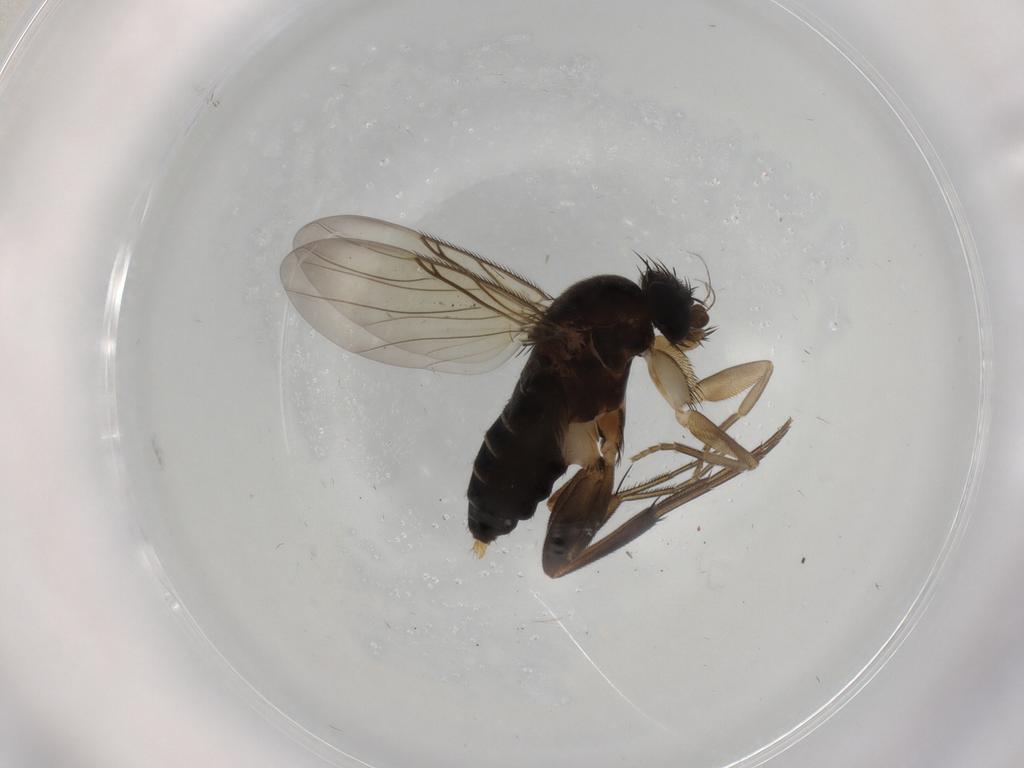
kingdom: Animalia
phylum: Arthropoda
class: Insecta
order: Diptera
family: Phoridae
